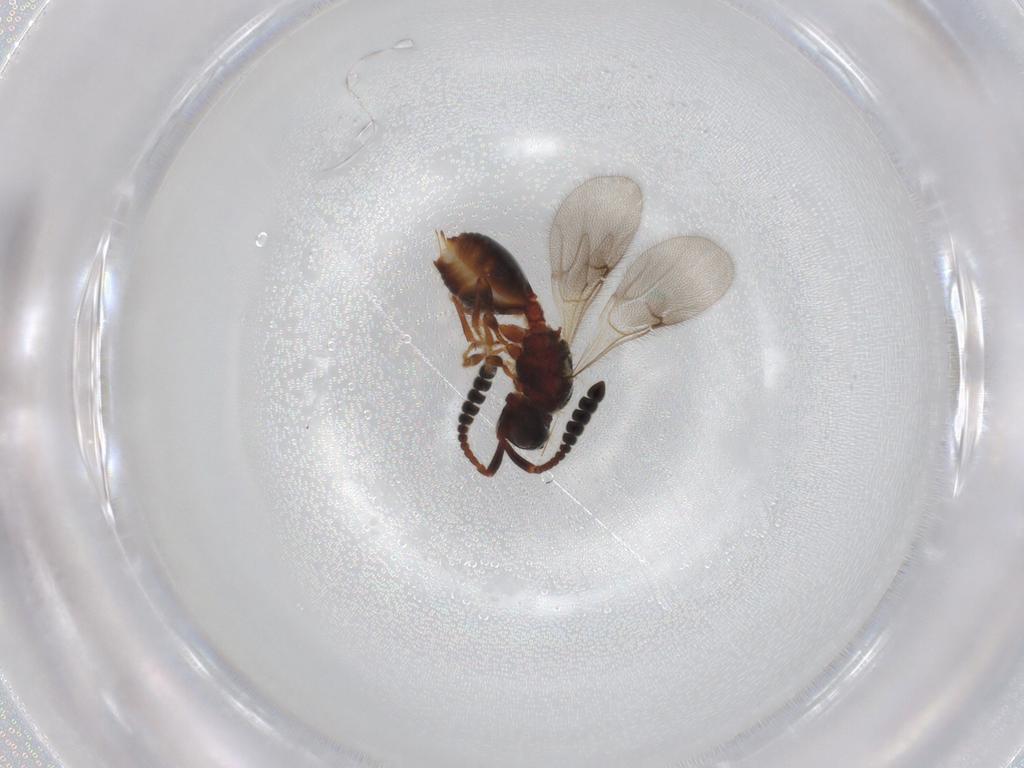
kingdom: Animalia
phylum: Arthropoda
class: Insecta
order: Hymenoptera
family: Diapriidae
